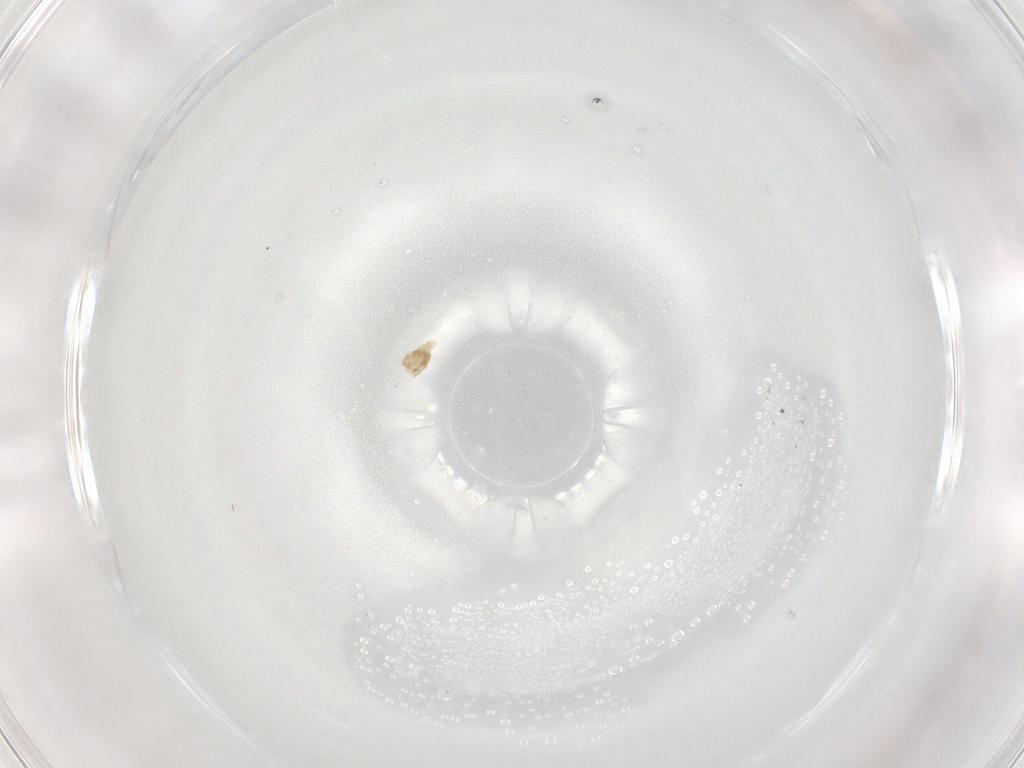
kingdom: Animalia
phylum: Arthropoda
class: Insecta
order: Diptera
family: Cecidomyiidae
